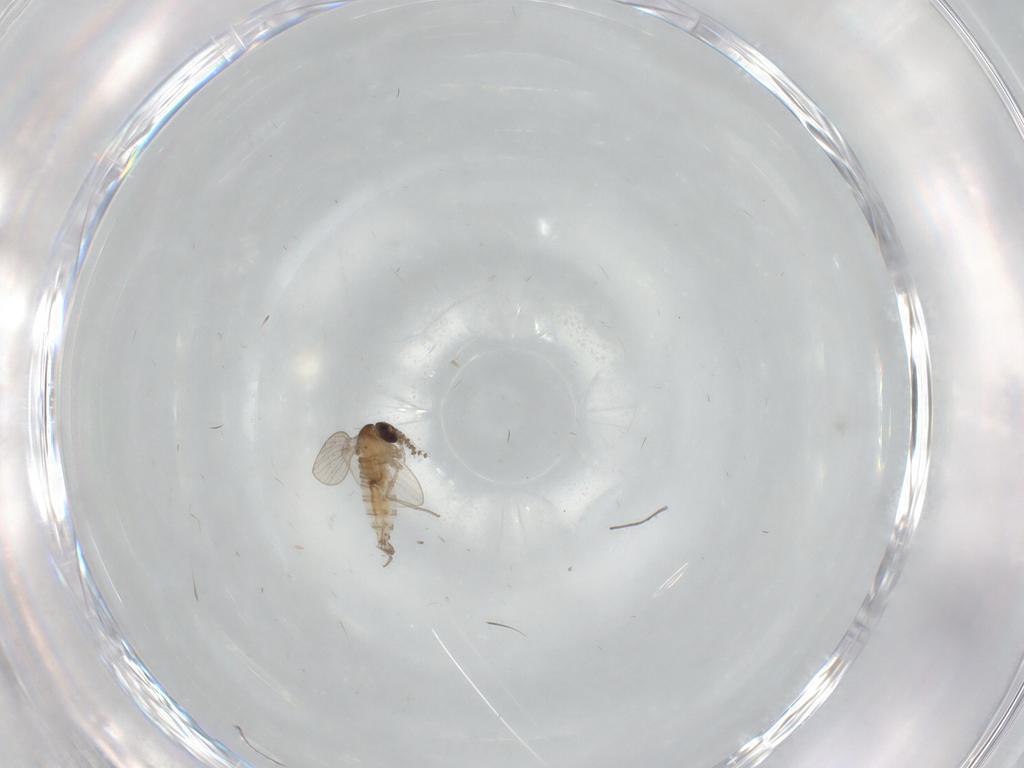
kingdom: Animalia
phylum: Arthropoda
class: Insecta
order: Diptera
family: Psychodidae
